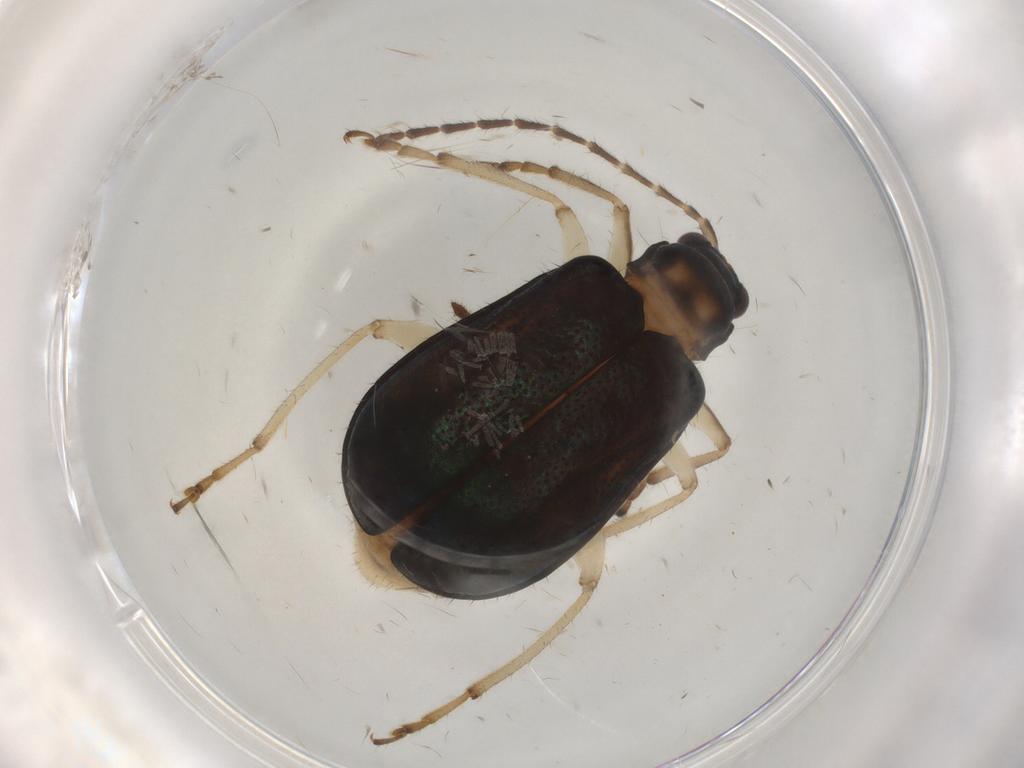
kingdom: Animalia
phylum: Arthropoda
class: Insecta
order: Coleoptera
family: Chrysomelidae
